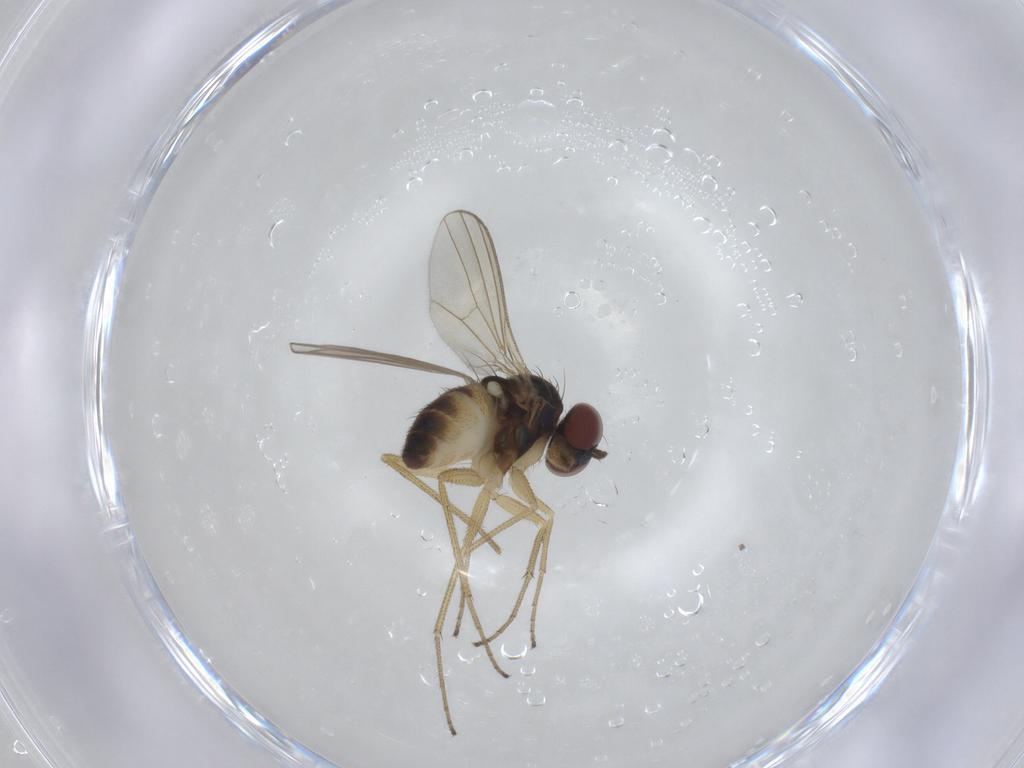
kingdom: Animalia
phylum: Arthropoda
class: Insecta
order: Diptera
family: Dolichopodidae
